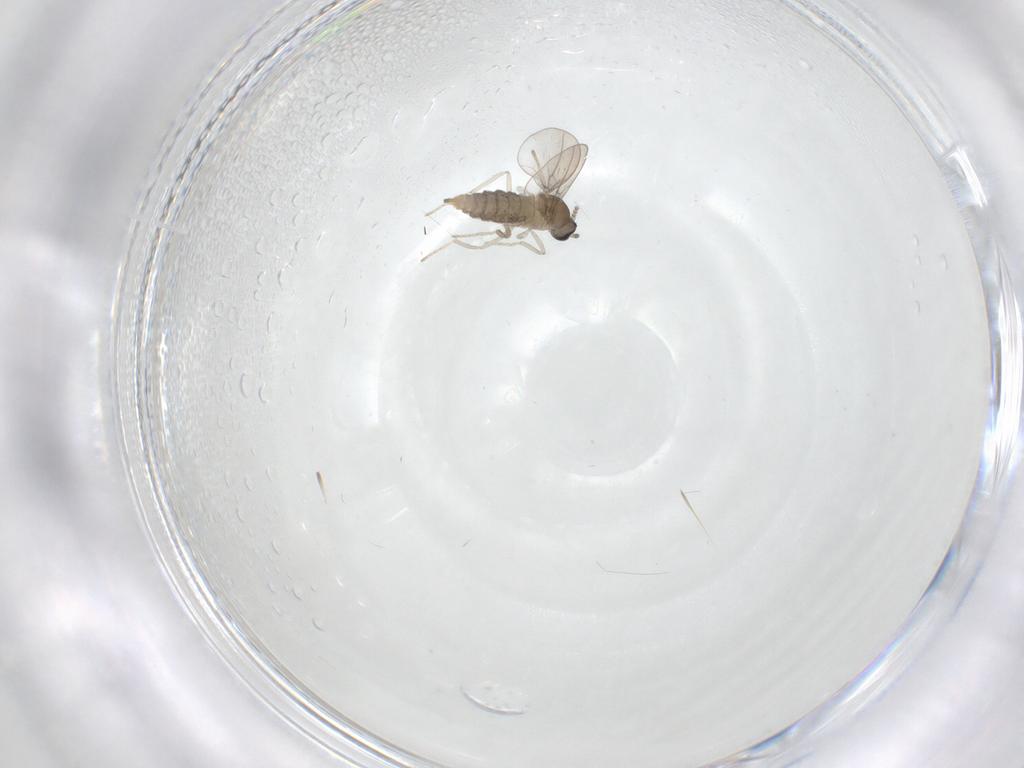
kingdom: Animalia
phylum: Arthropoda
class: Insecta
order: Diptera
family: Cecidomyiidae
